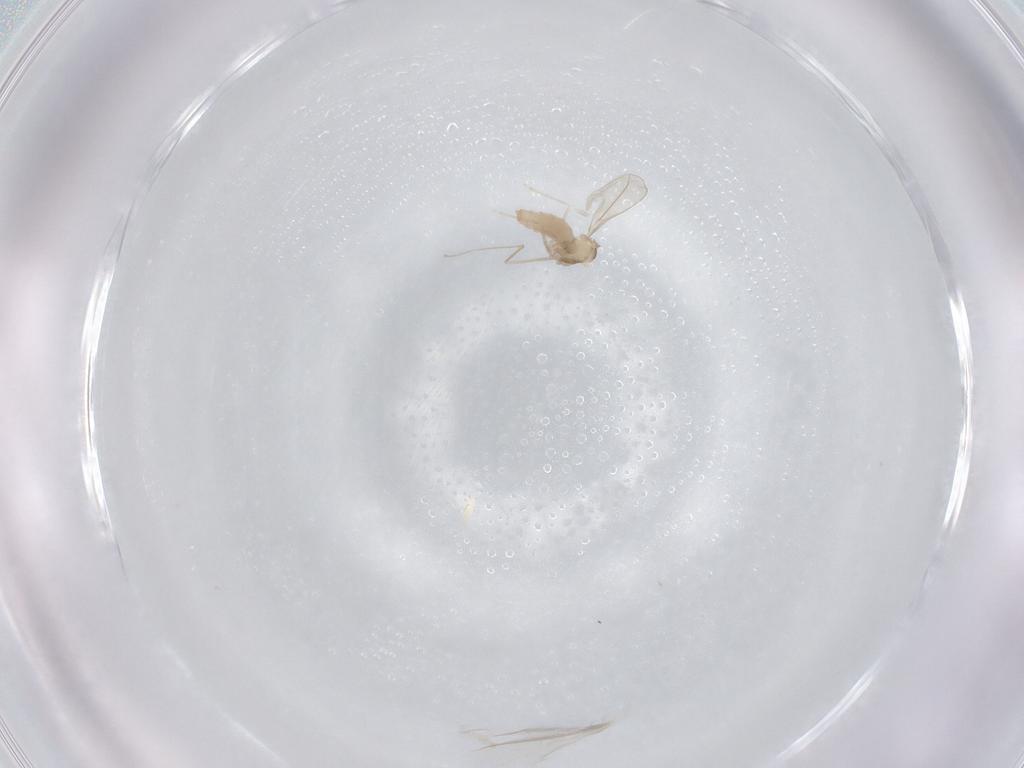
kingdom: Animalia
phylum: Arthropoda
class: Insecta
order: Diptera
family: Cecidomyiidae
